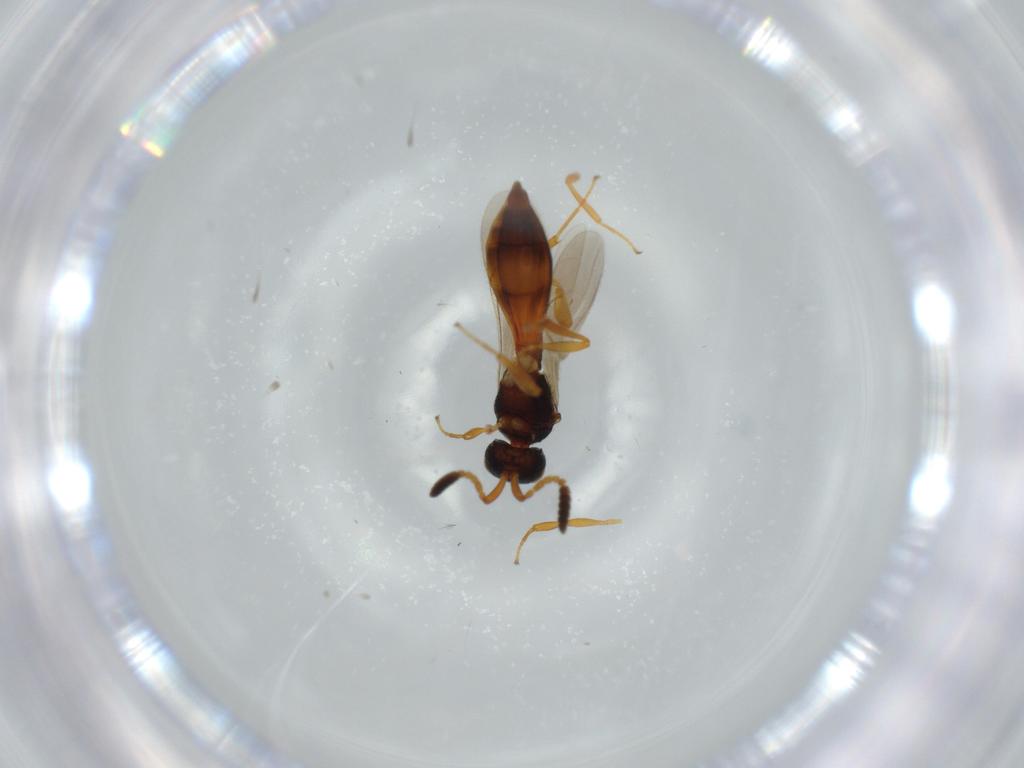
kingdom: Animalia
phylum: Arthropoda
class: Insecta
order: Hymenoptera
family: Scelionidae
